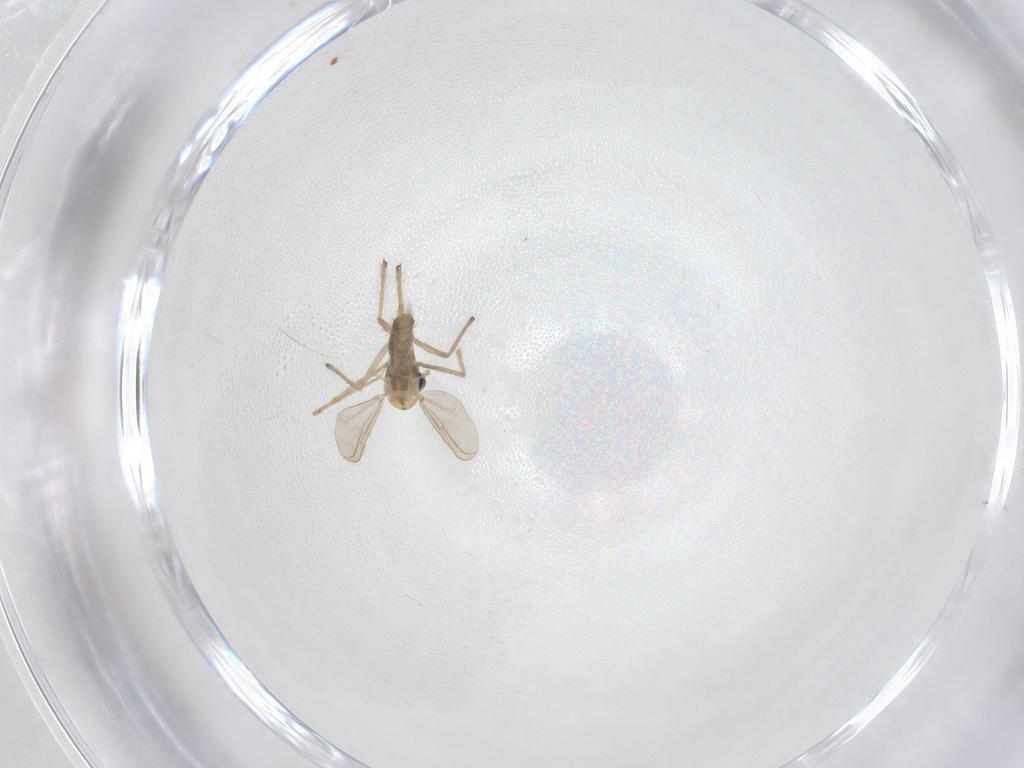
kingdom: Animalia
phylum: Arthropoda
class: Insecta
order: Diptera
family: Chironomidae
